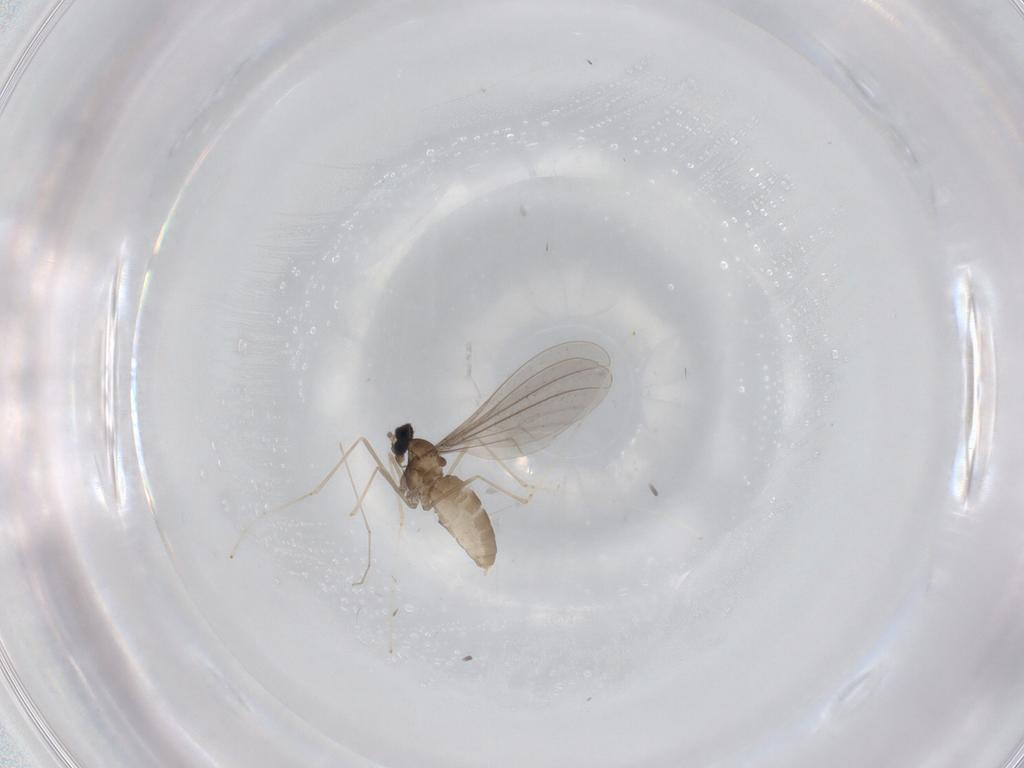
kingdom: Animalia
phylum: Arthropoda
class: Insecta
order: Diptera
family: Cecidomyiidae
